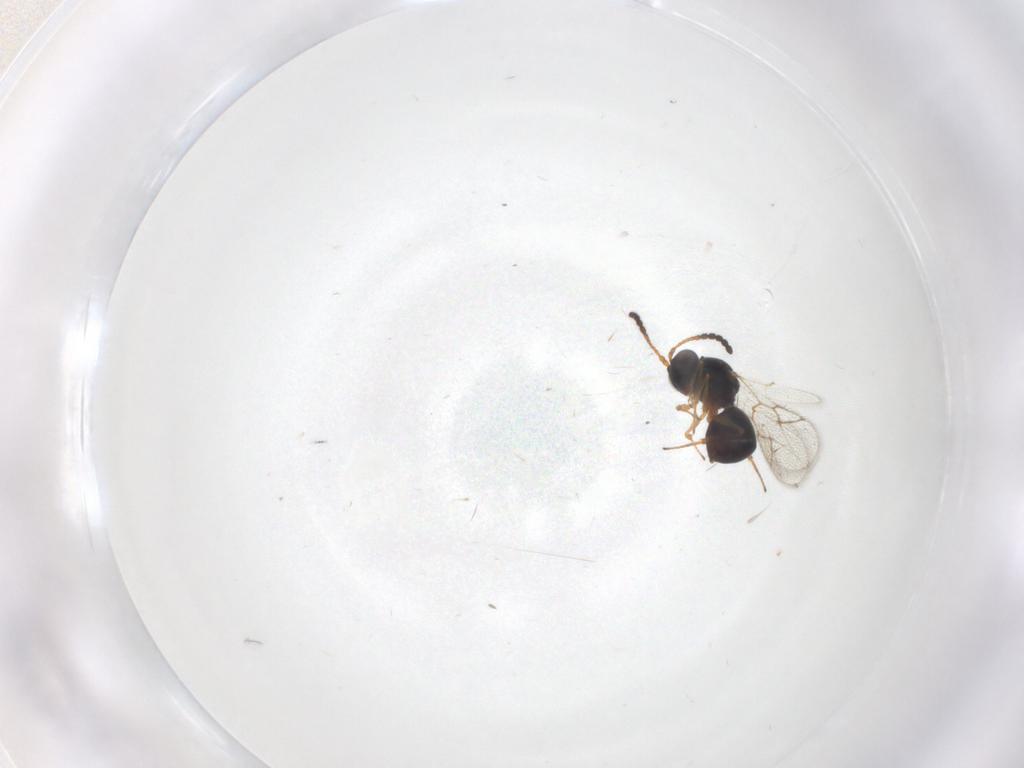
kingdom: Animalia
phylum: Arthropoda
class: Insecta
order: Hymenoptera
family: Figitidae
